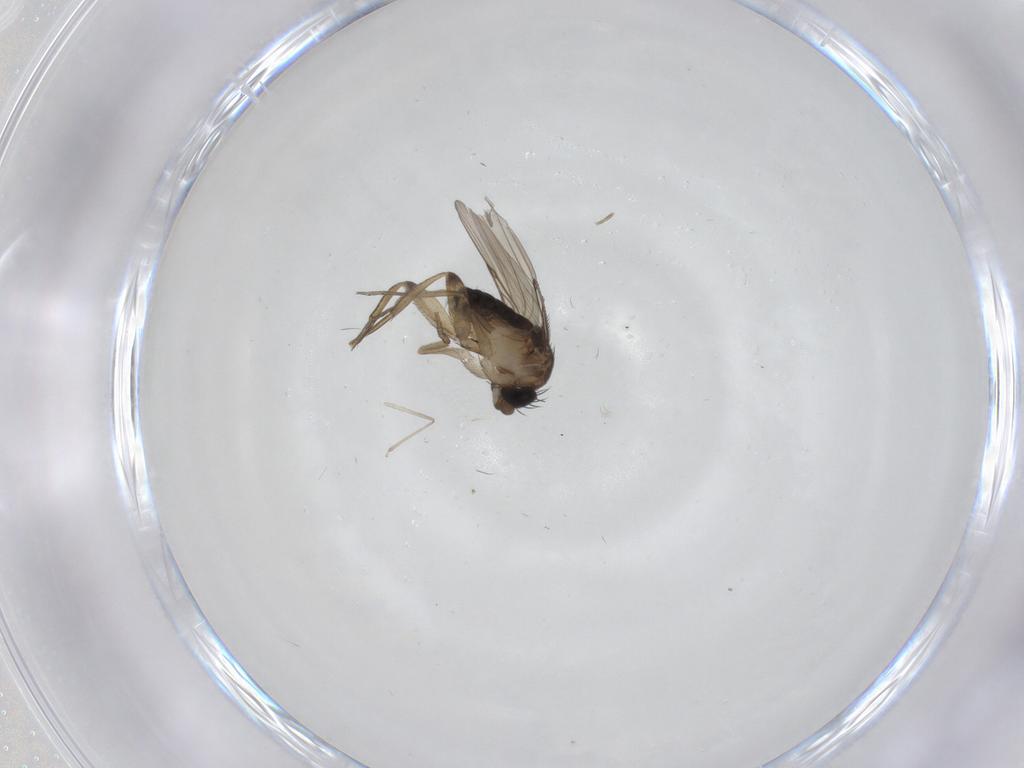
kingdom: Animalia
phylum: Arthropoda
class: Insecta
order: Diptera
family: Phoridae
